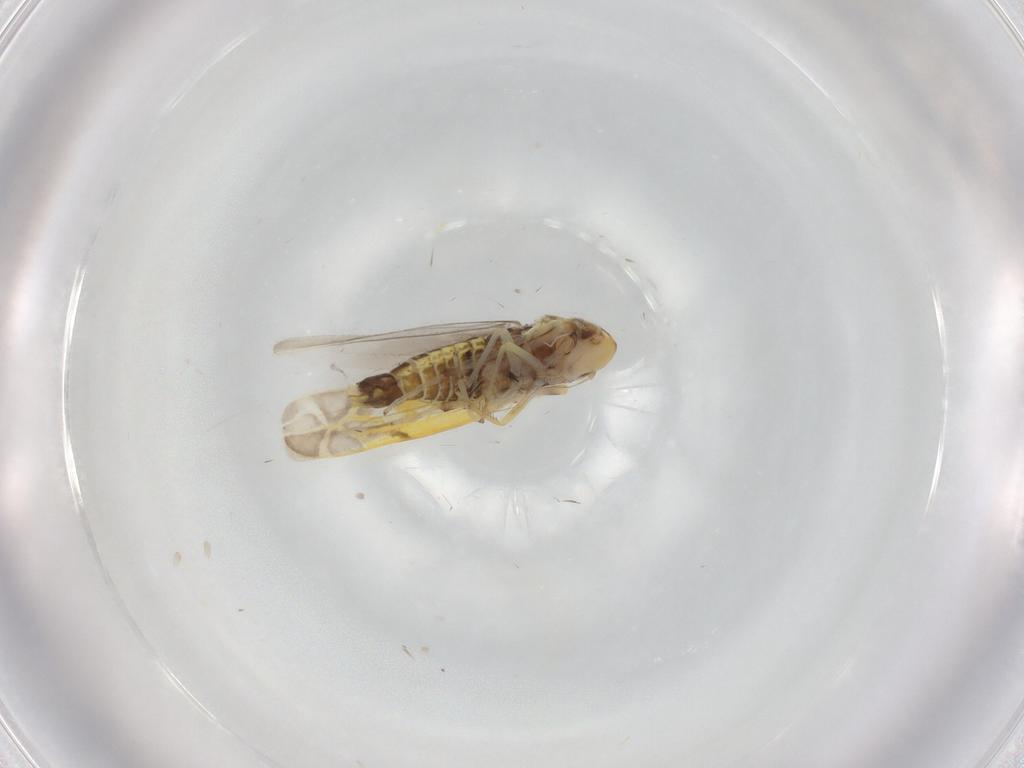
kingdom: Animalia
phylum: Arthropoda
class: Insecta
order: Hemiptera
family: Cicadellidae
